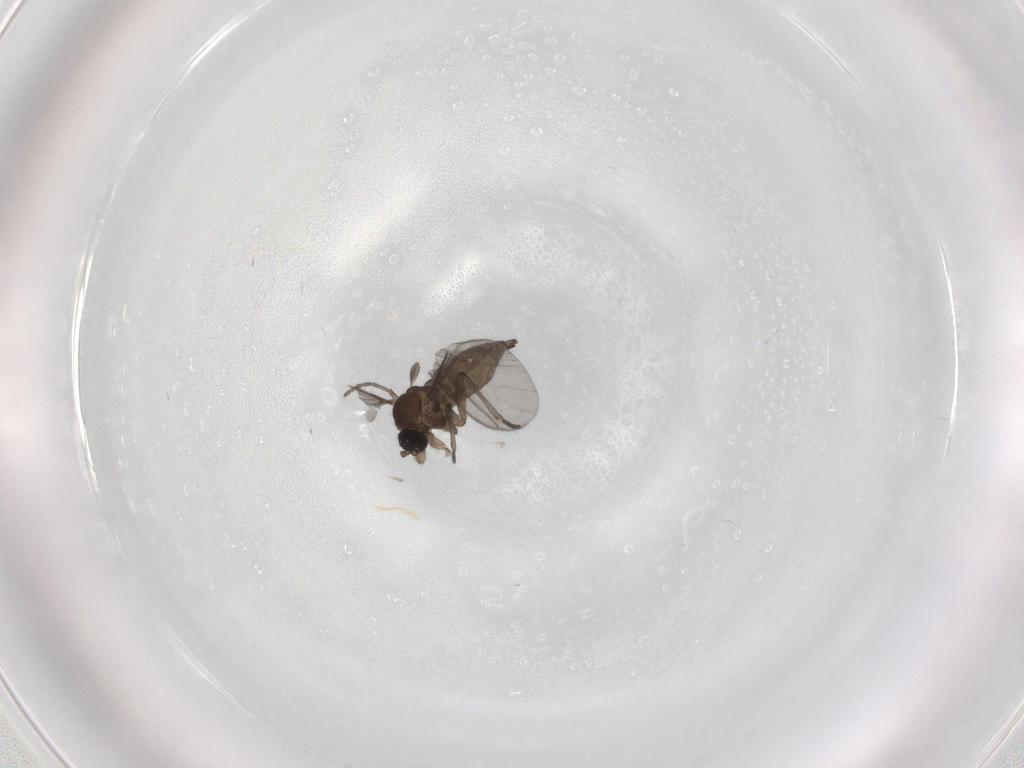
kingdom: Animalia
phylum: Arthropoda
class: Insecta
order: Diptera
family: Sciaridae
